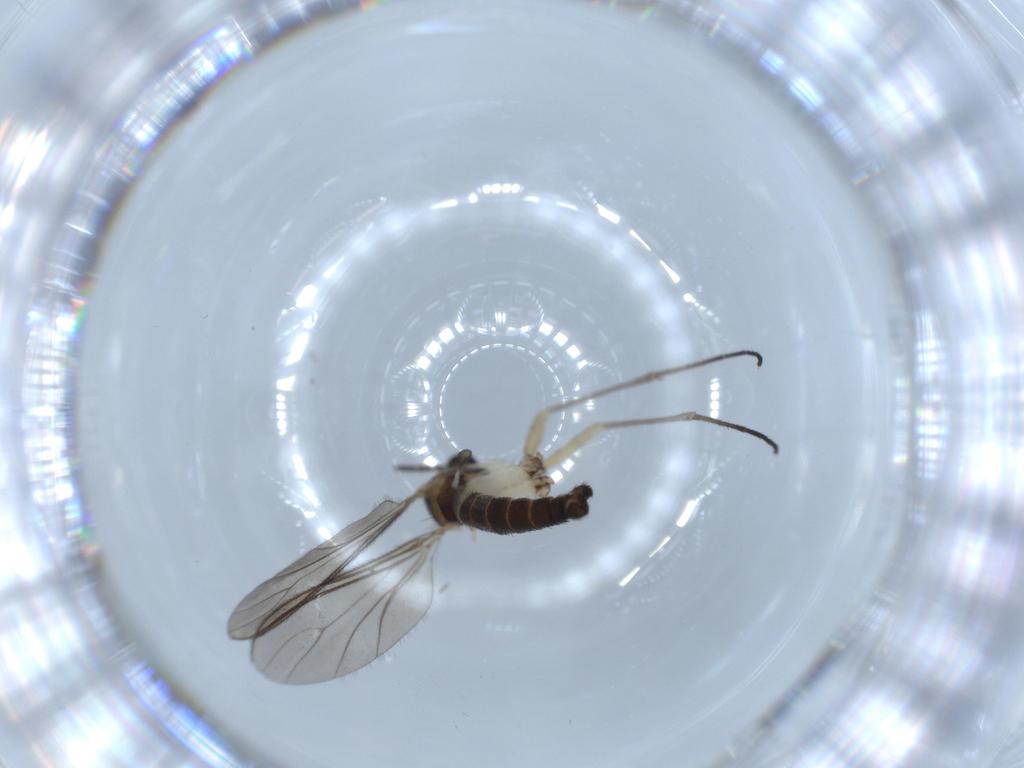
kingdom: Animalia
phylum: Arthropoda
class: Insecta
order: Diptera
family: Sciaridae
